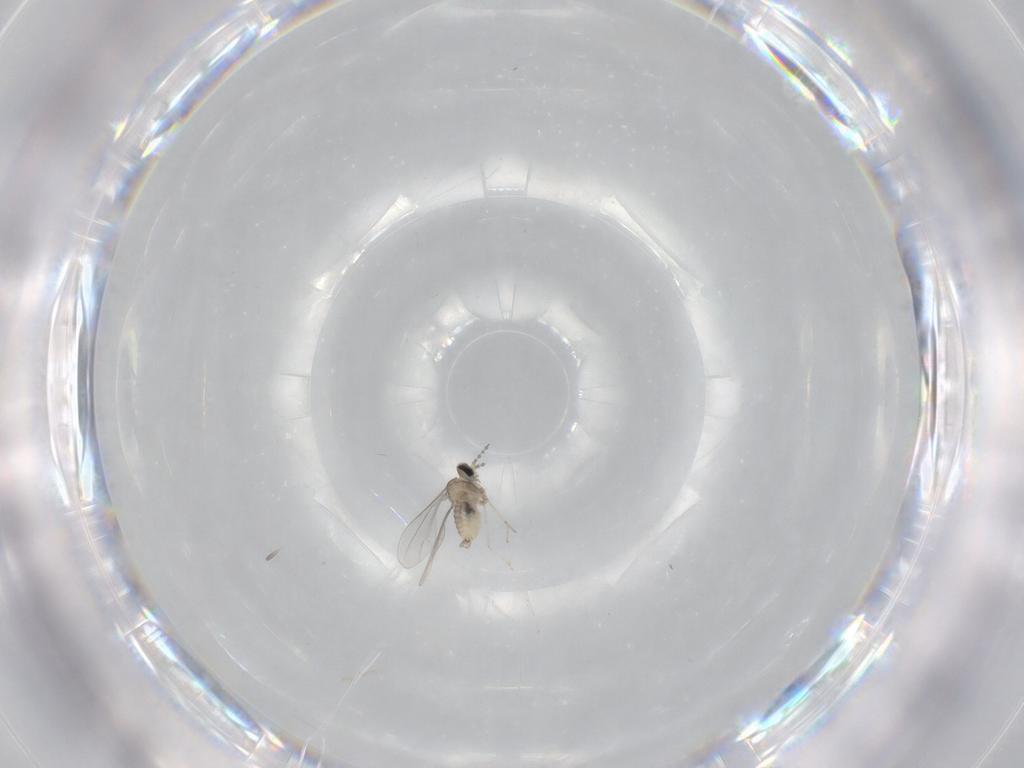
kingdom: Animalia
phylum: Arthropoda
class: Insecta
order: Diptera
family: Cecidomyiidae
